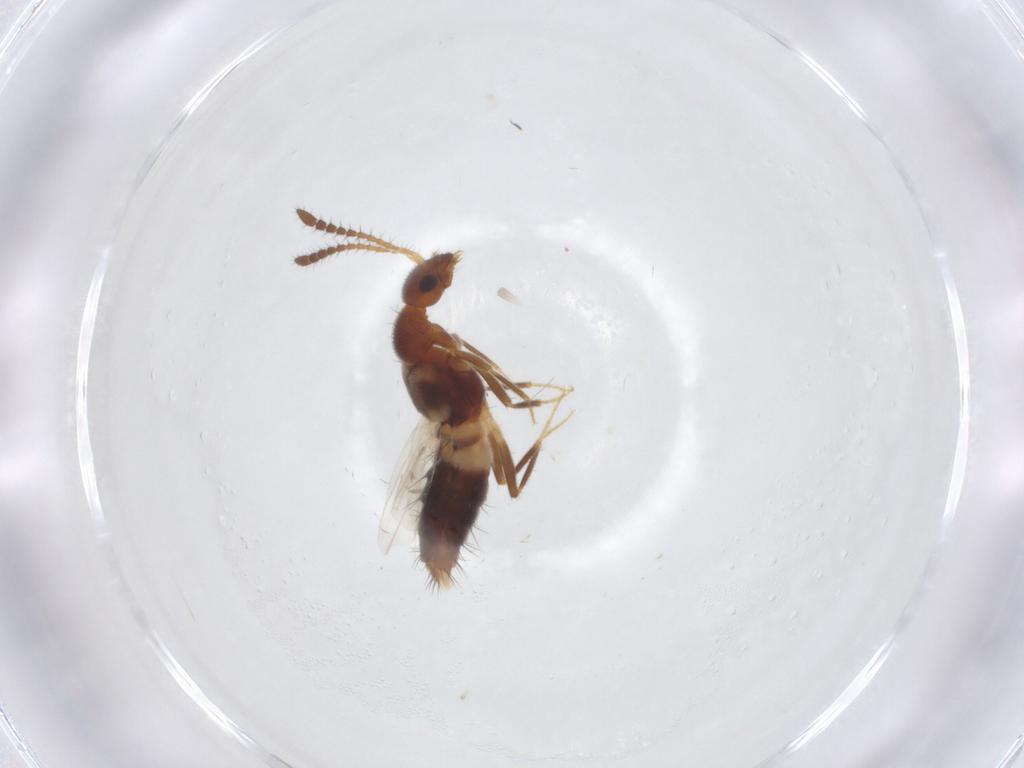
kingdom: Animalia
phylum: Arthropoda
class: Insecta
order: Coleoptera
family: Staphylinidae
